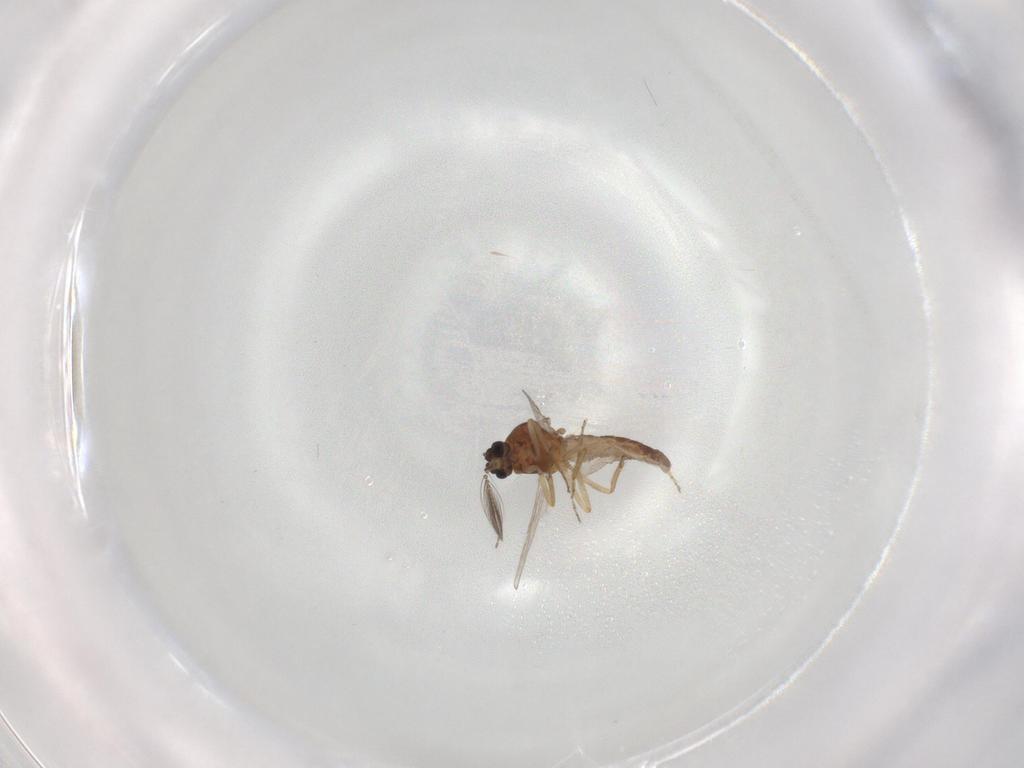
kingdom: Animalia
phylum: Arthropoda
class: Insecta
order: Diptera
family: Ceratopogonidae
